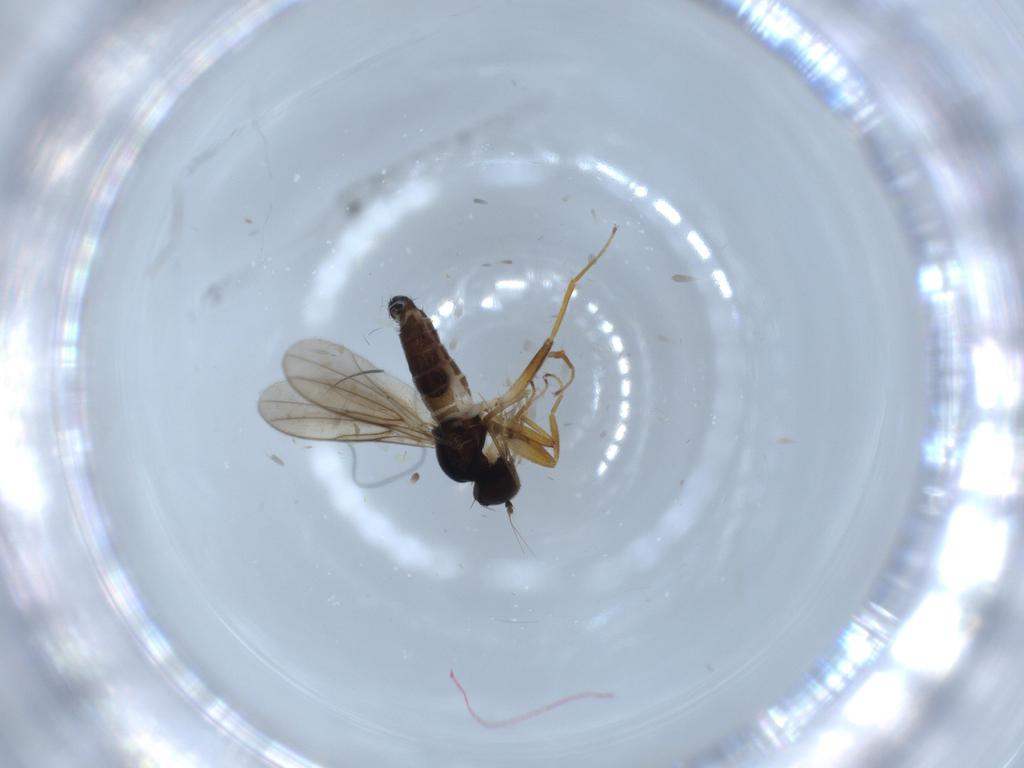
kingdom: Animalia
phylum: Arthropoda
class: Insecta
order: Diptera
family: Hybotidae
